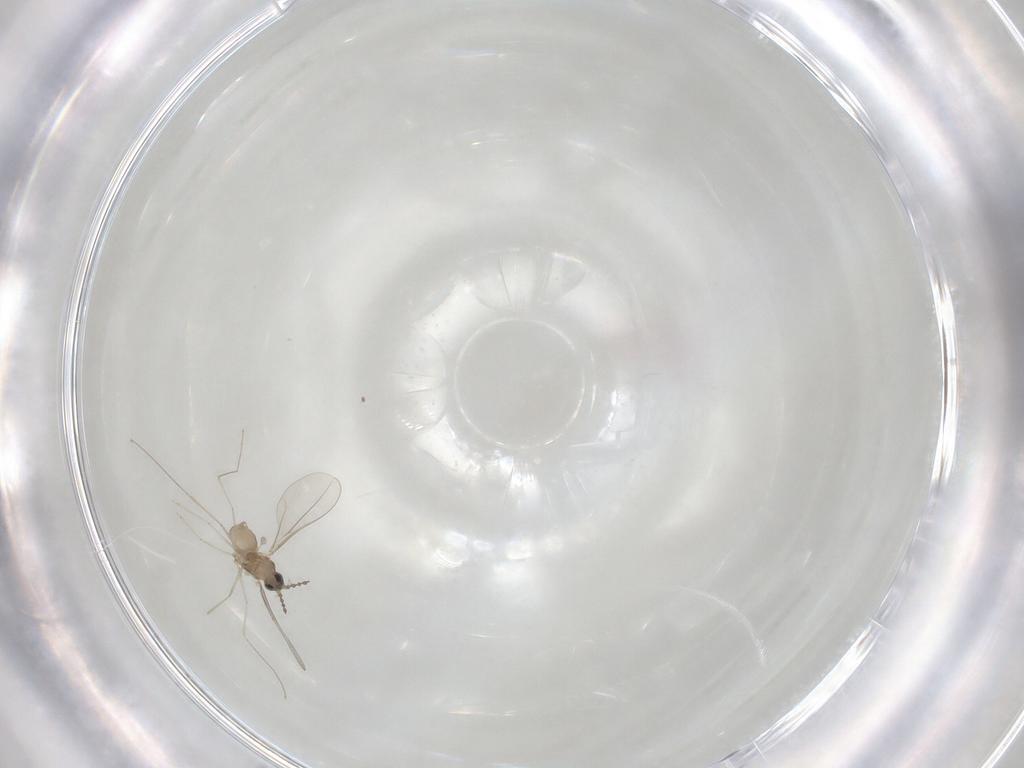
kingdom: Animalia
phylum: Arthropoda
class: Insecta
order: Diptera
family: Cecidomyiidae
